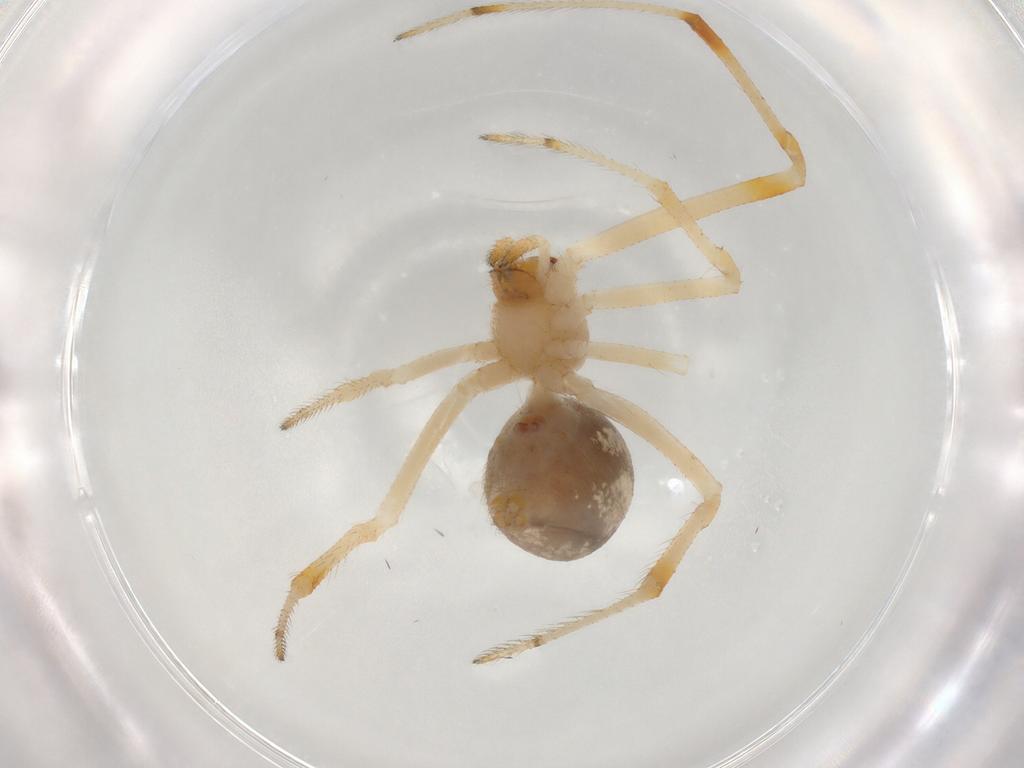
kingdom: Animalia
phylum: Arthropoda
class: Arachnida
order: Araneae
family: Theridiidae
